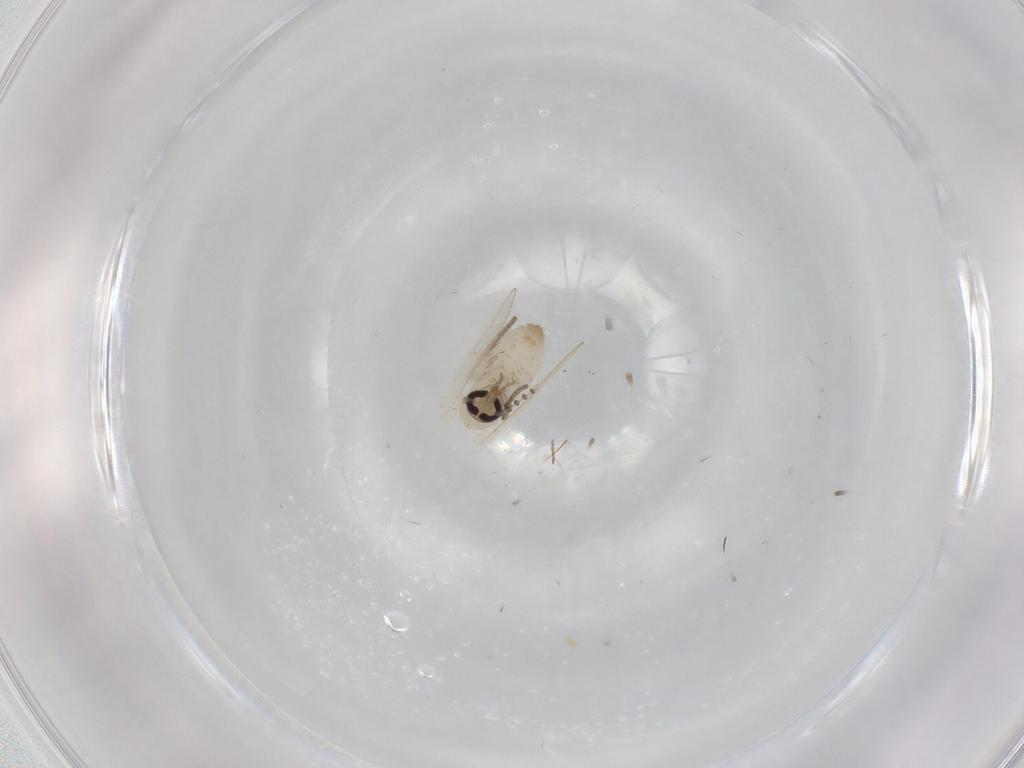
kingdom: Animalia
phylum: Arthropoda
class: Insecta
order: Diptera
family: Psychodidae
